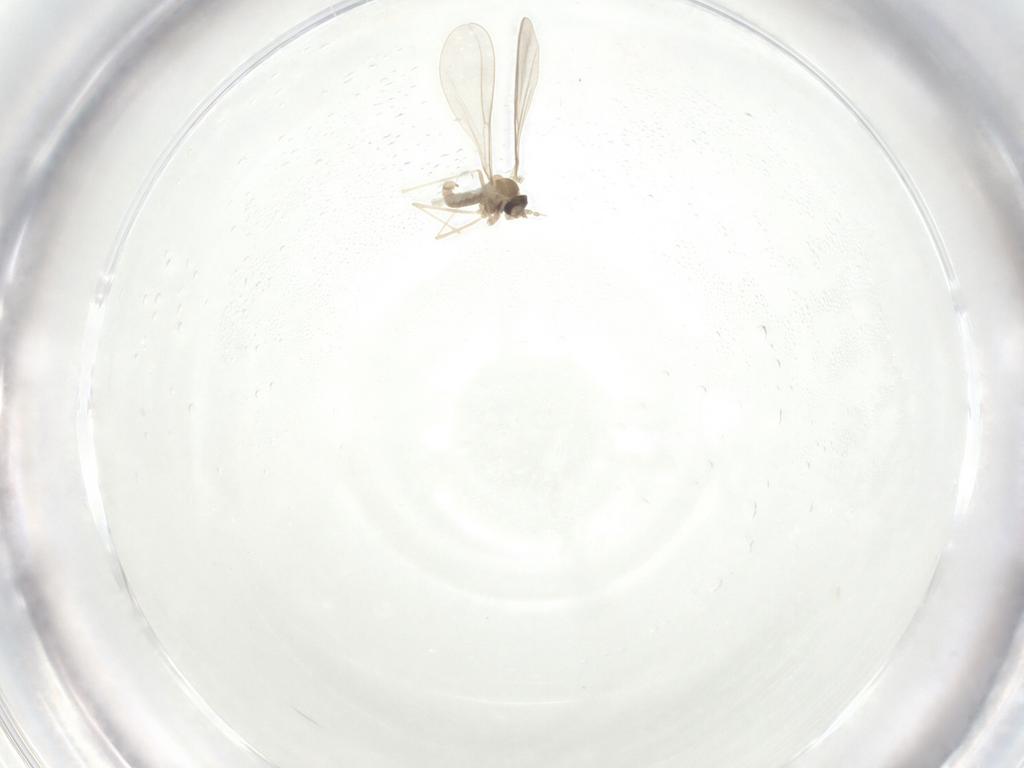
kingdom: Animalia
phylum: Arthropoda
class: Insecta
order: Diptera
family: Cecidomyiidae
